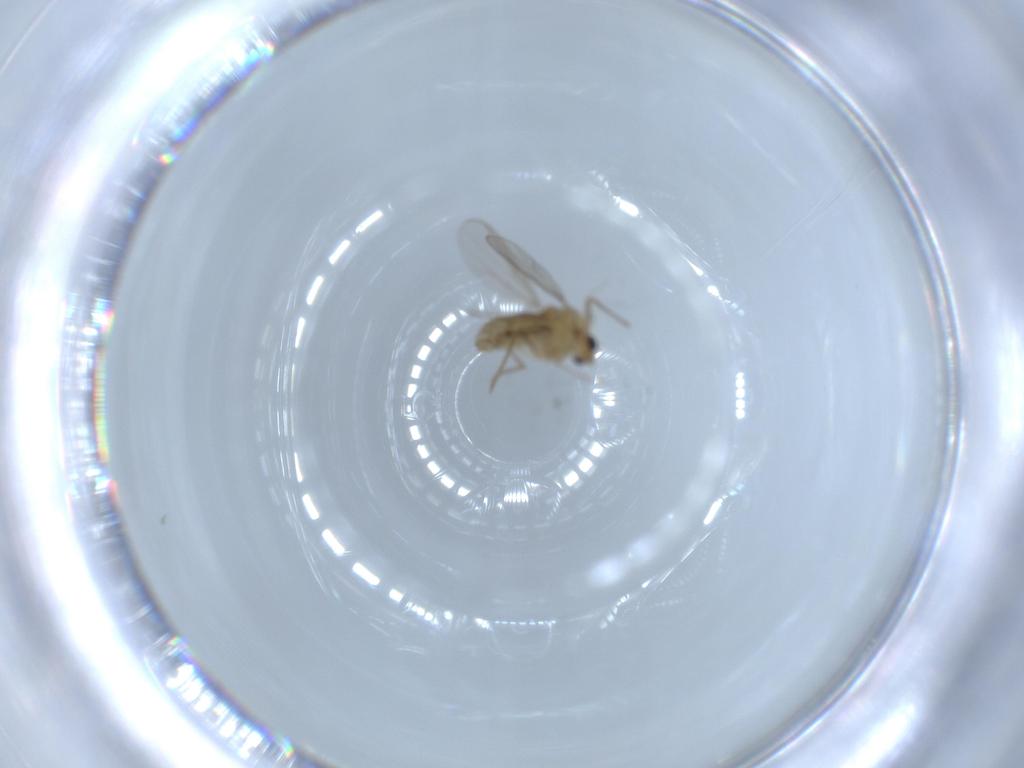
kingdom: Animalia
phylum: Arthropoda
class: Insecta
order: Diptera
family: Chironomidae
